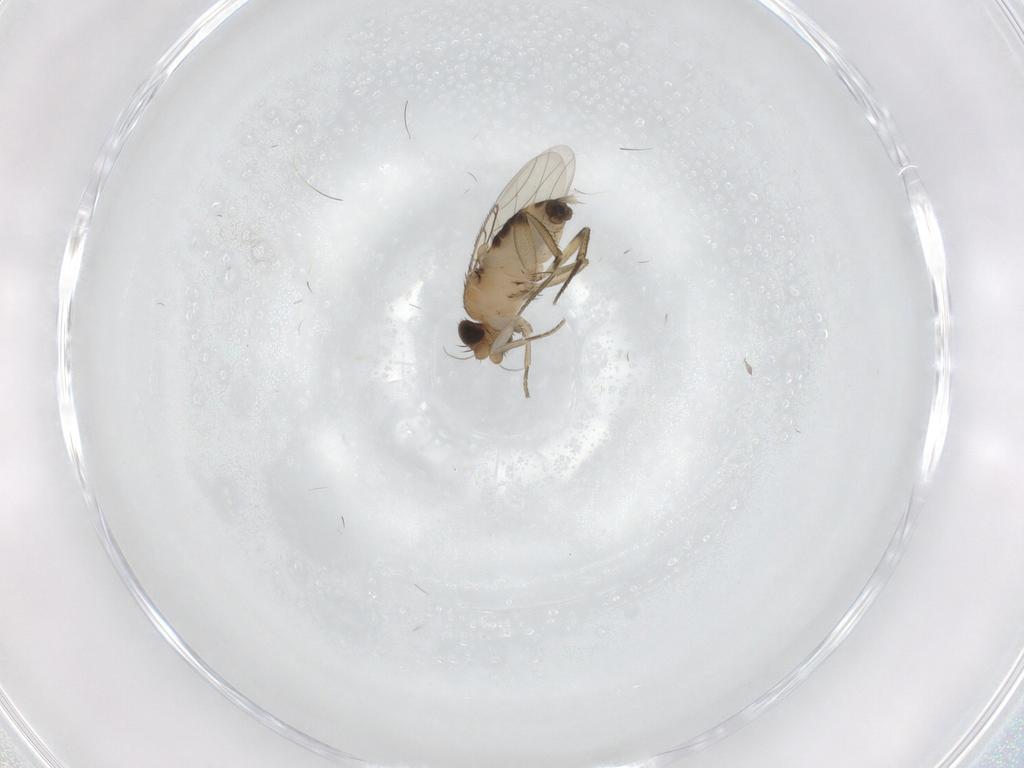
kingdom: Animalia
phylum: Arthropoda
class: Insecta
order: Diptera
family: Phoridae
